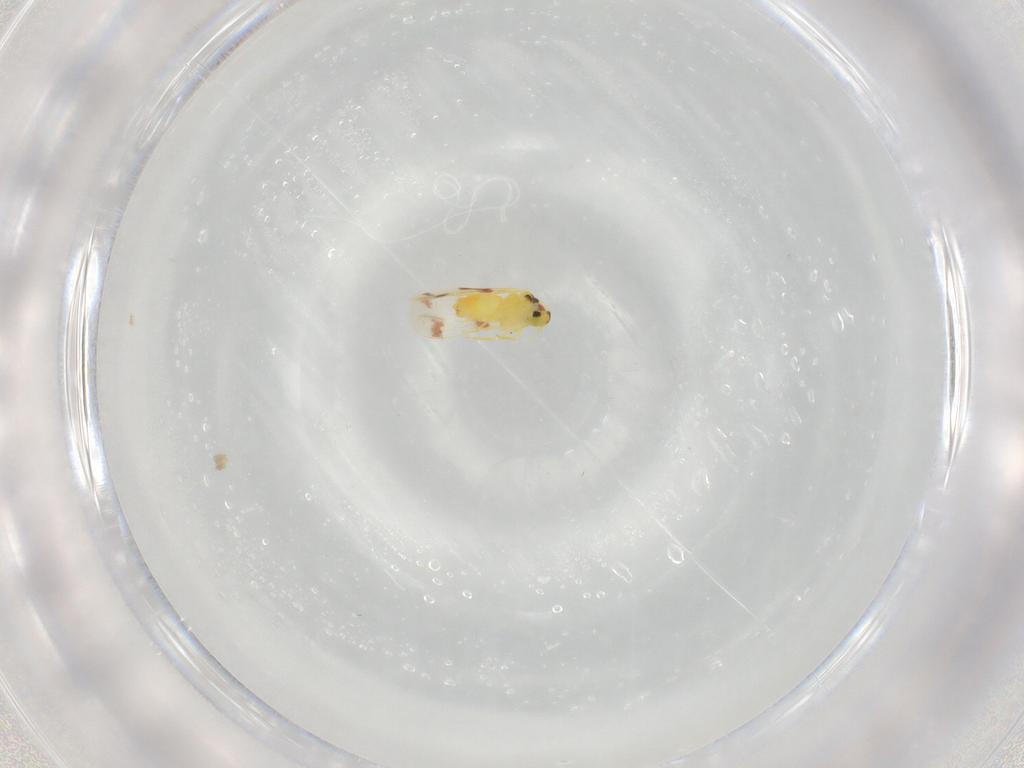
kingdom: Animalia
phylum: Arthropoda
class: Insecta
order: Hemiptera
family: Aleyrodidae
